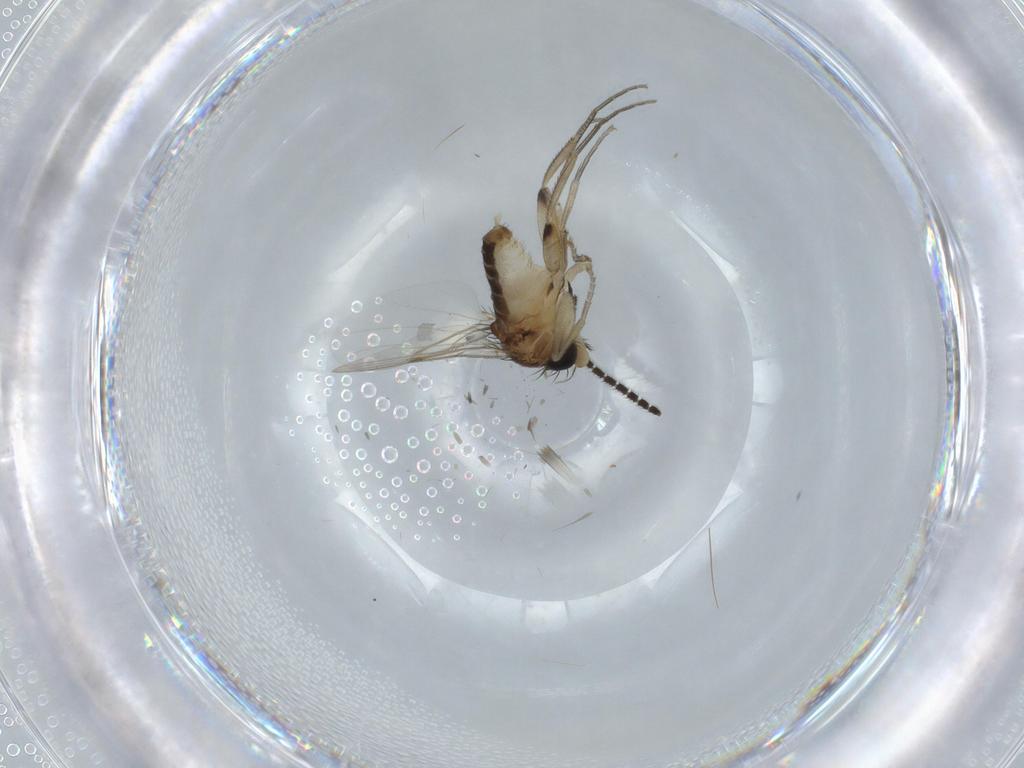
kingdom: Animalia
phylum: Arthropoda
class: Insecta
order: Diptera
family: Phoridae
